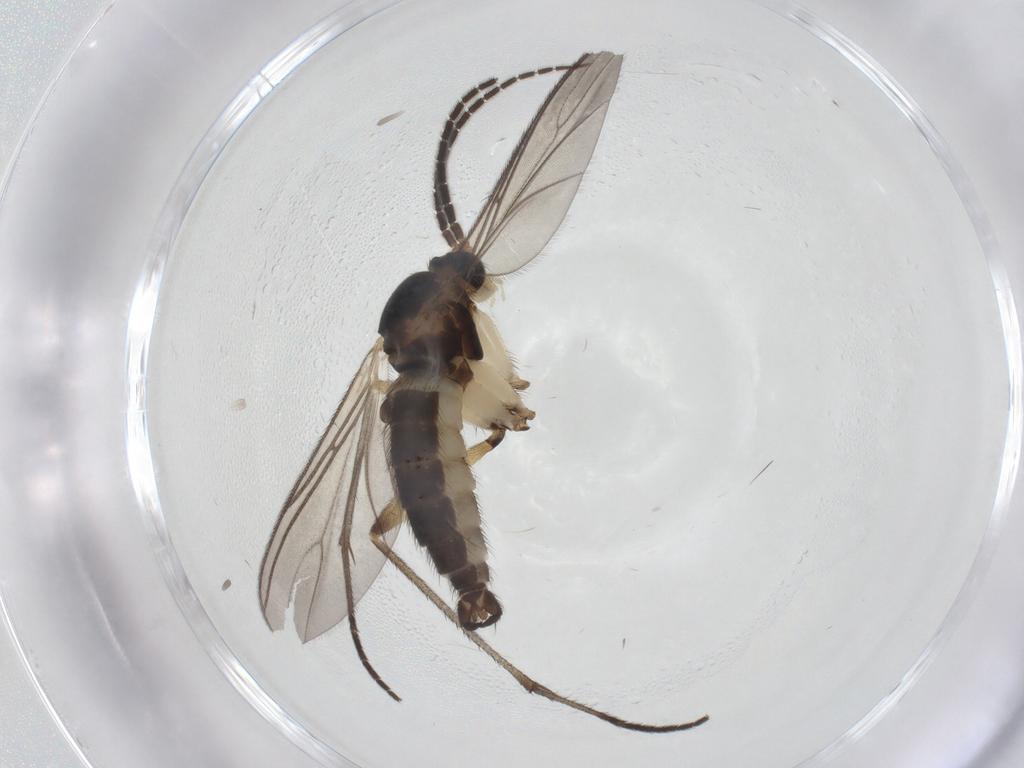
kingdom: Animalia
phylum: Arthropoda
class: Insecta
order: Diptera
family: Sciaridae
